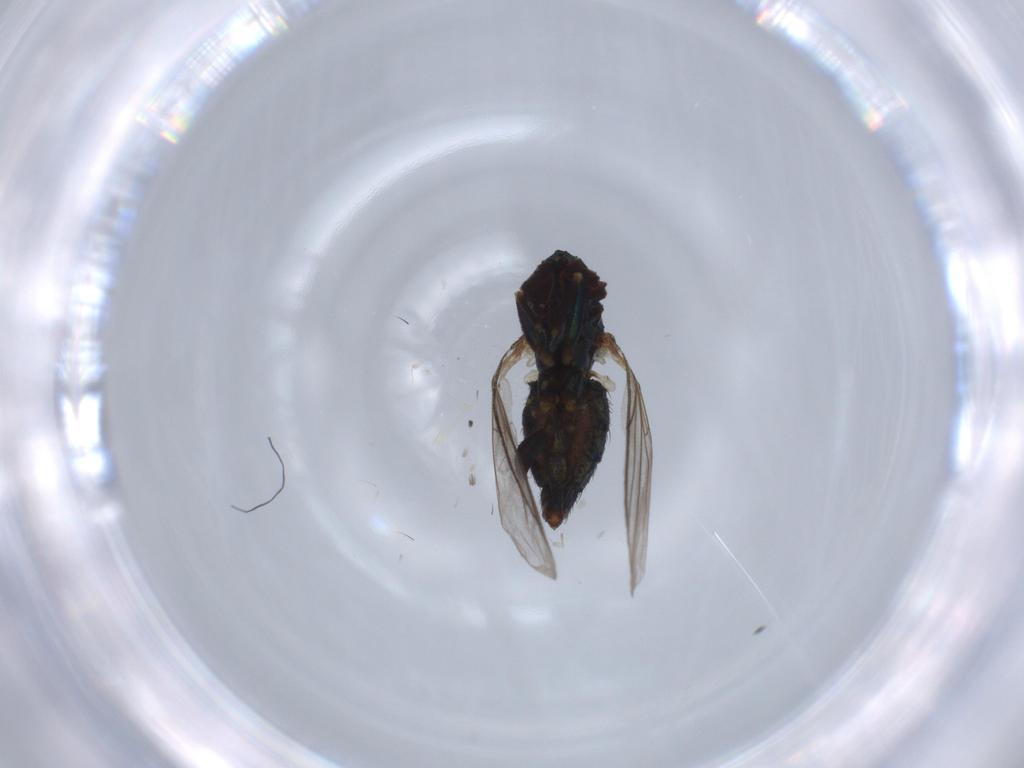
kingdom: Animalia
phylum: Arthropoda
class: Insecta
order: Diptera
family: Dolichopodidae
